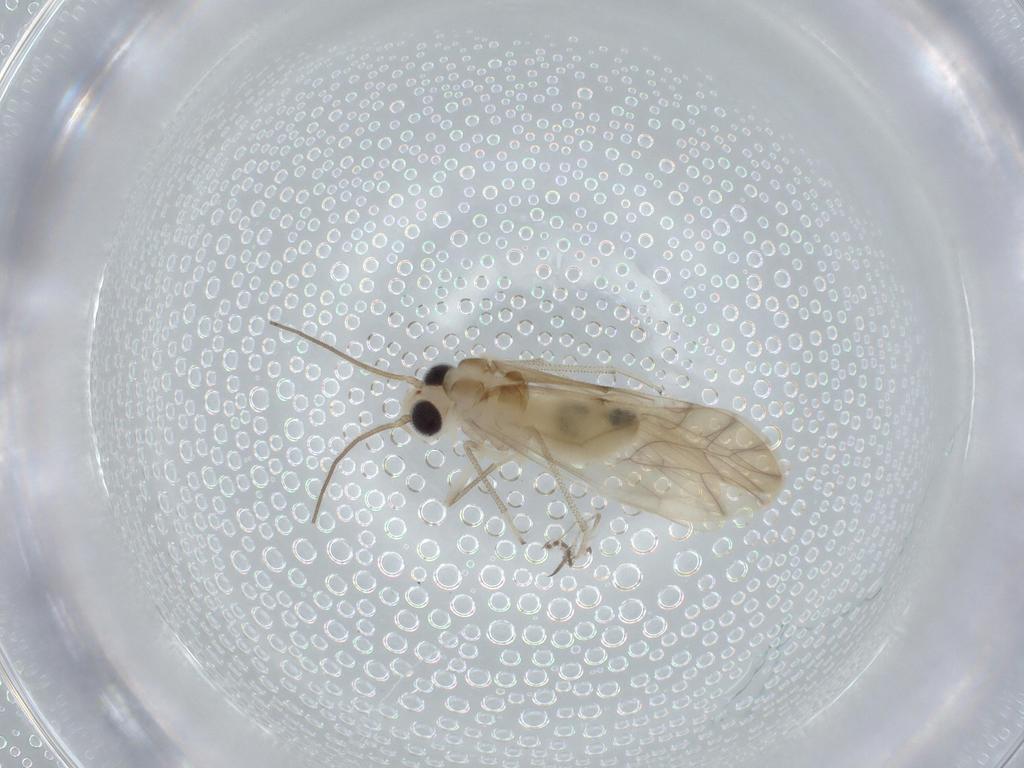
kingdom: Animalia
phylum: Arthropoda
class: Insecta
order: Psocodea
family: Caeciliusidae
